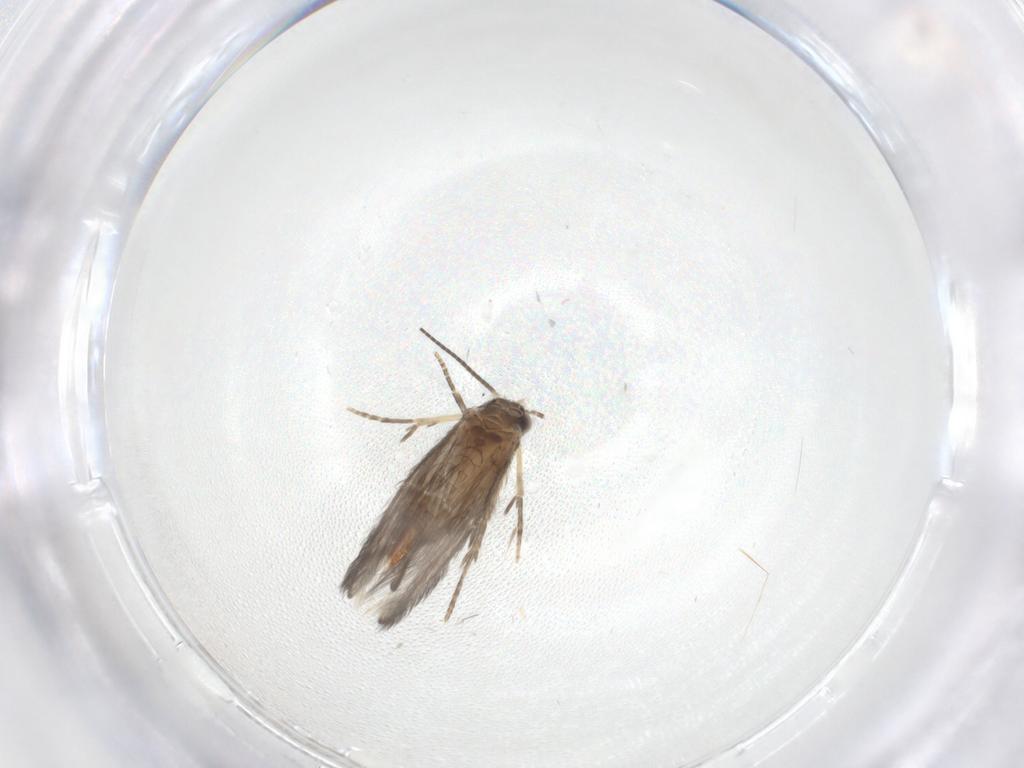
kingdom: Animalia
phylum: Arthropoda
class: Insecta
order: Trichoptera
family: Hydroptilidae
